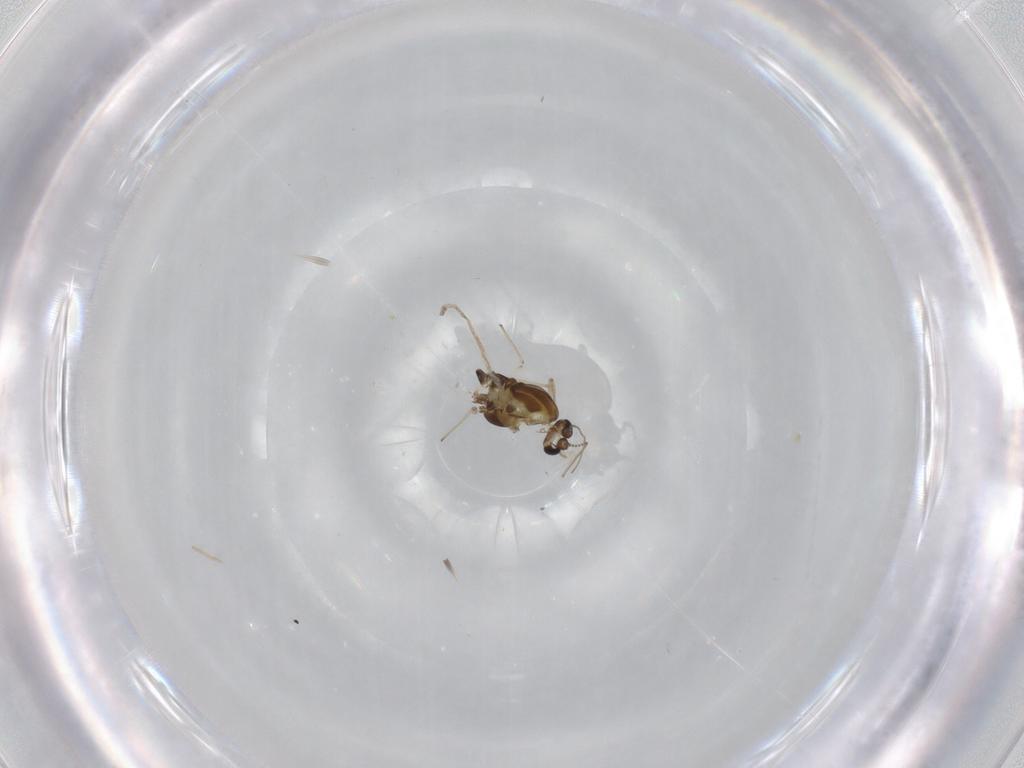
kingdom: Animalia
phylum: Arthropoda
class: Insecta
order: Diptera
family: Chironomidae
